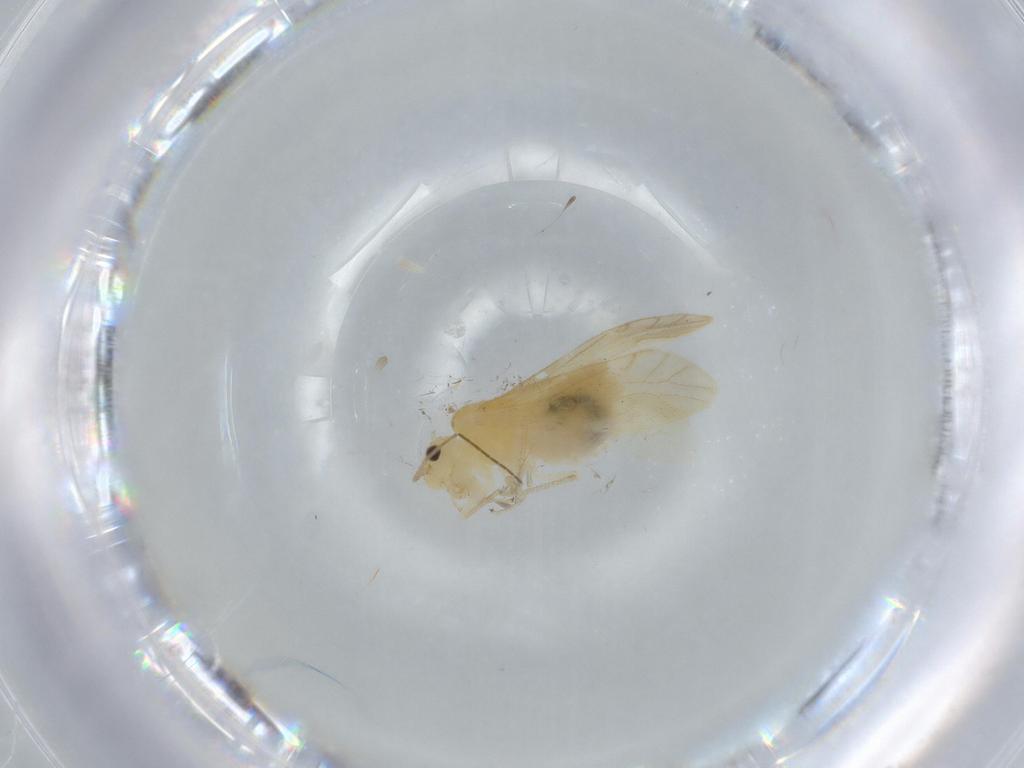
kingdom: Animalia
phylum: Arthropoda
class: Insecta
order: Psocodea
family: Caeciliusidae
